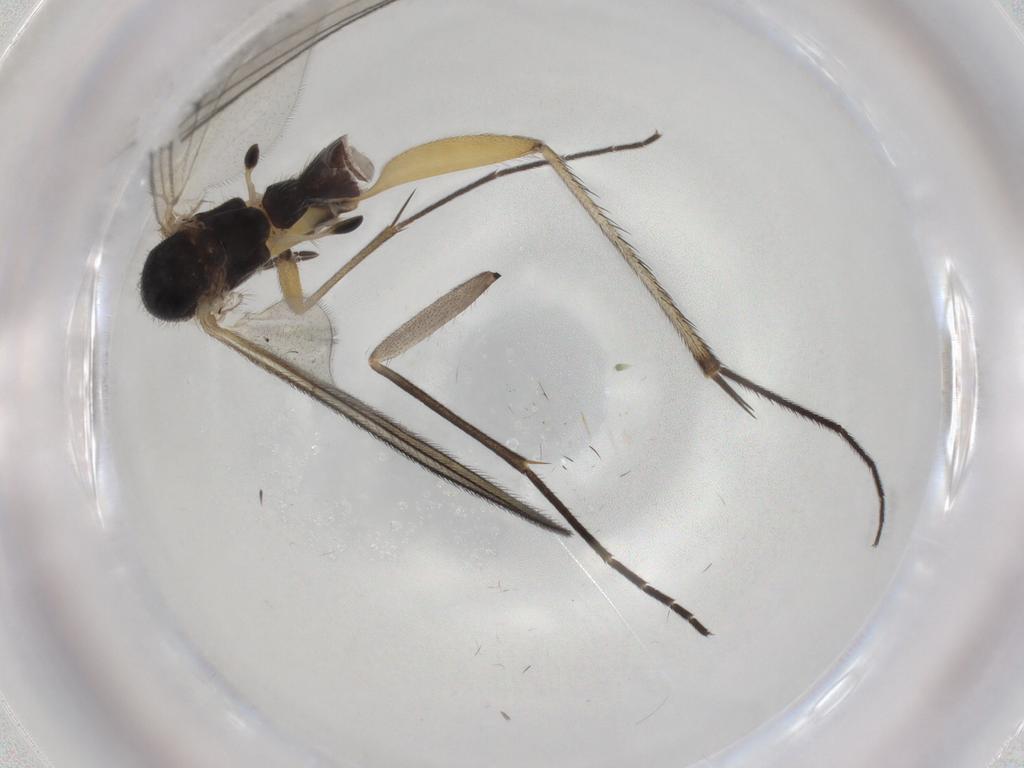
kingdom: Animalia
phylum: Arthropoda
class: Insecta
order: Diptera
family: Sciaridae
